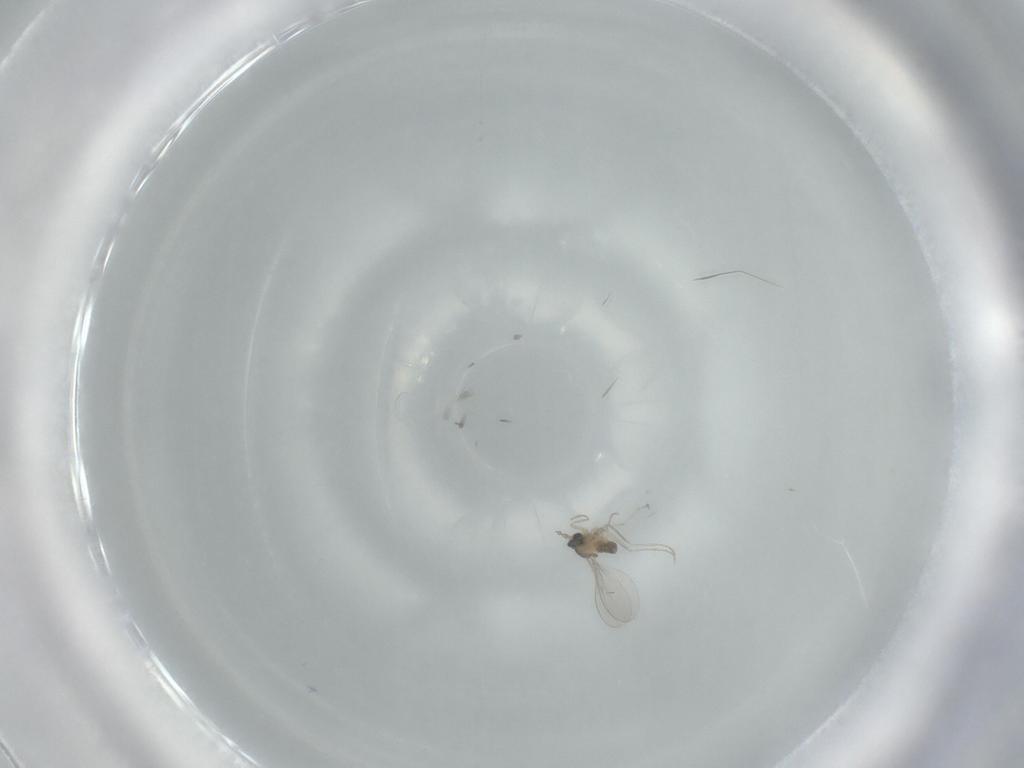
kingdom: Animalia
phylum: Arthropoda
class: Insecta
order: Diptera
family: Cecidomyiidae
